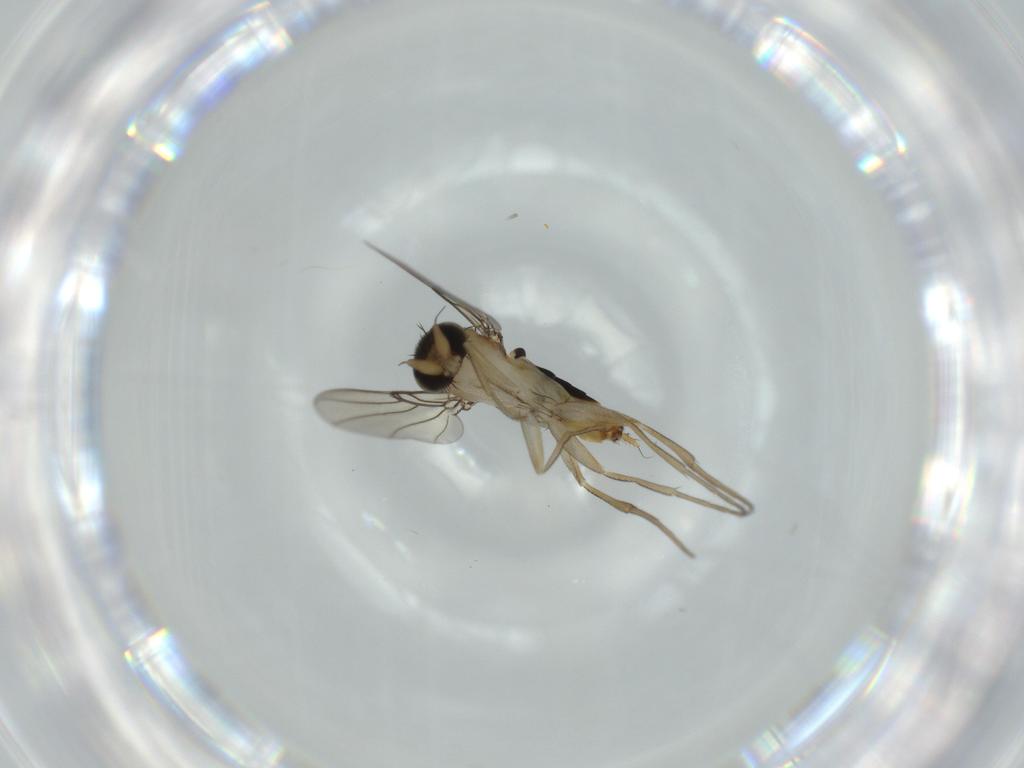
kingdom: Animalia
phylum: Arthropoda
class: Insecta
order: Diptera
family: Phoridae
